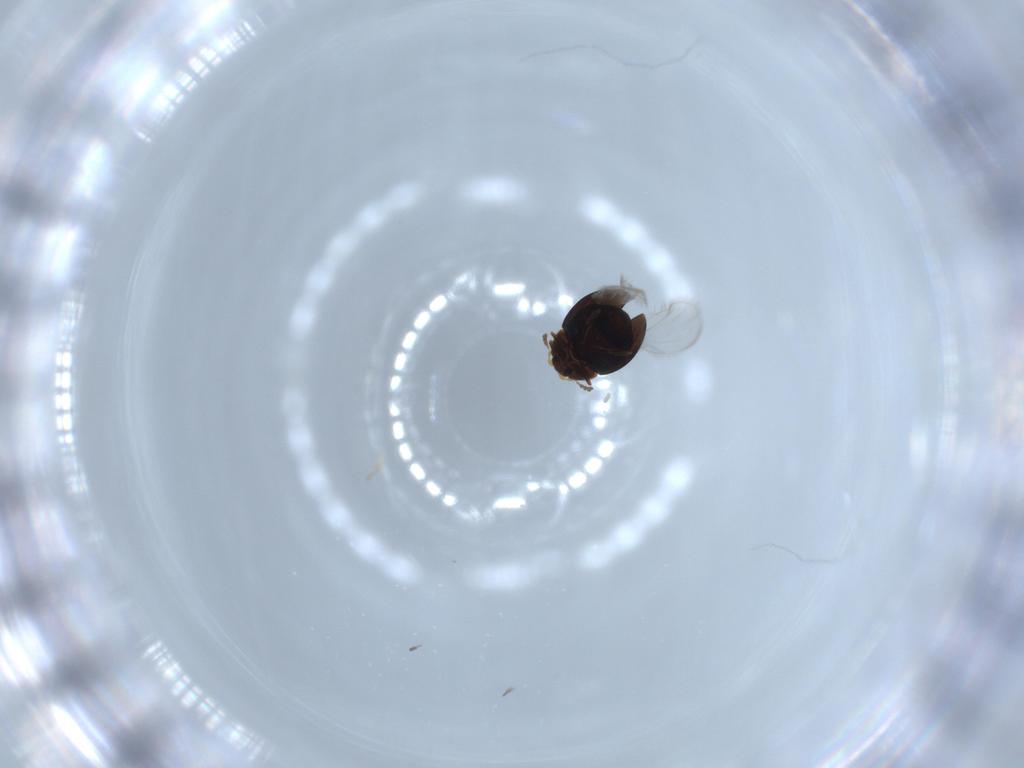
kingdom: Animalia
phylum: Arthropoda
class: Insecta
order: Coleoptera
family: Corylophidae
